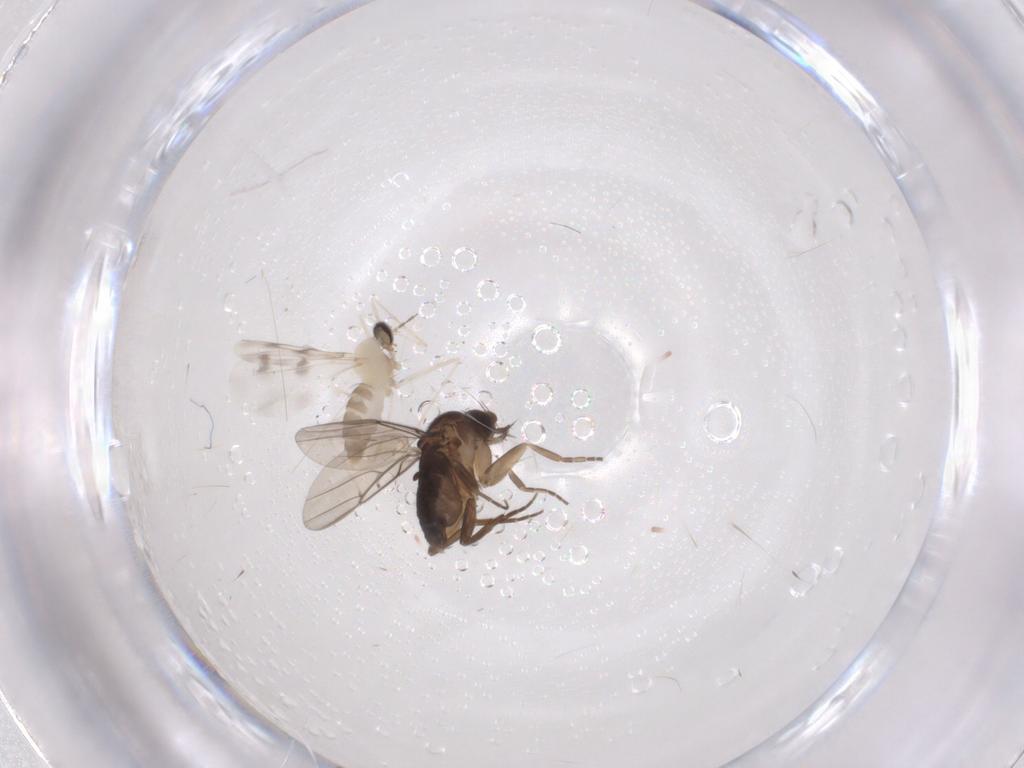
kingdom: Animalia
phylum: Arthropoda
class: Insecta
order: Diptera
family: Phoridae
